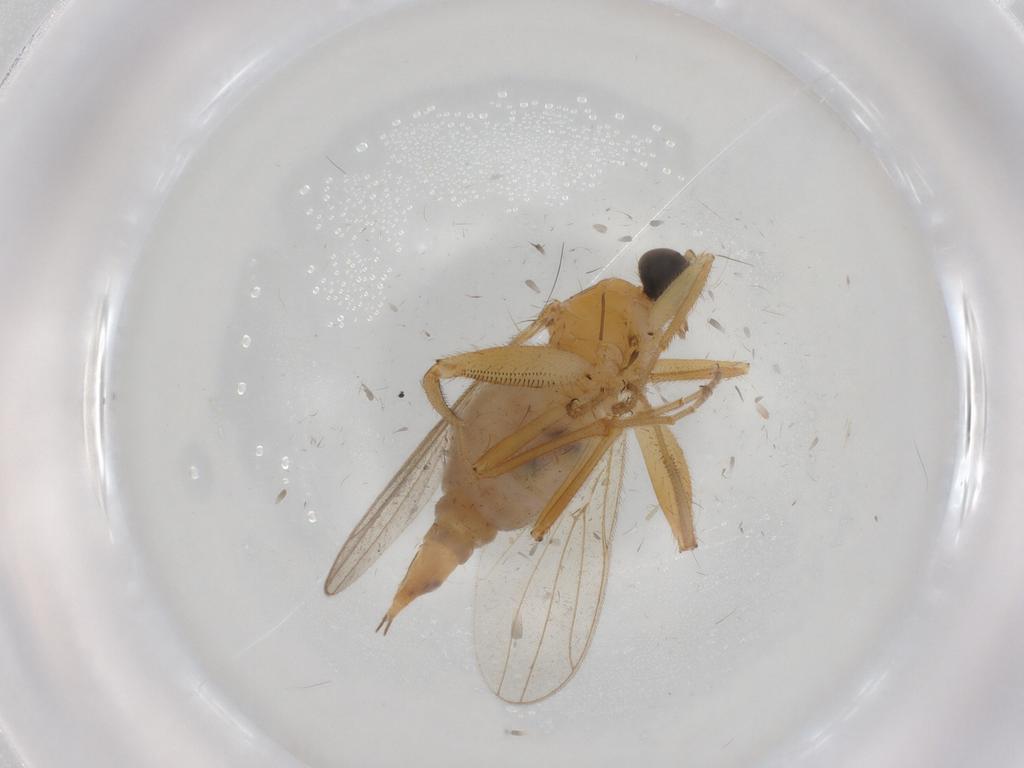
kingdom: Animalia
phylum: Arthropoda
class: Insecta
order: Diptera
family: Hybotidae
